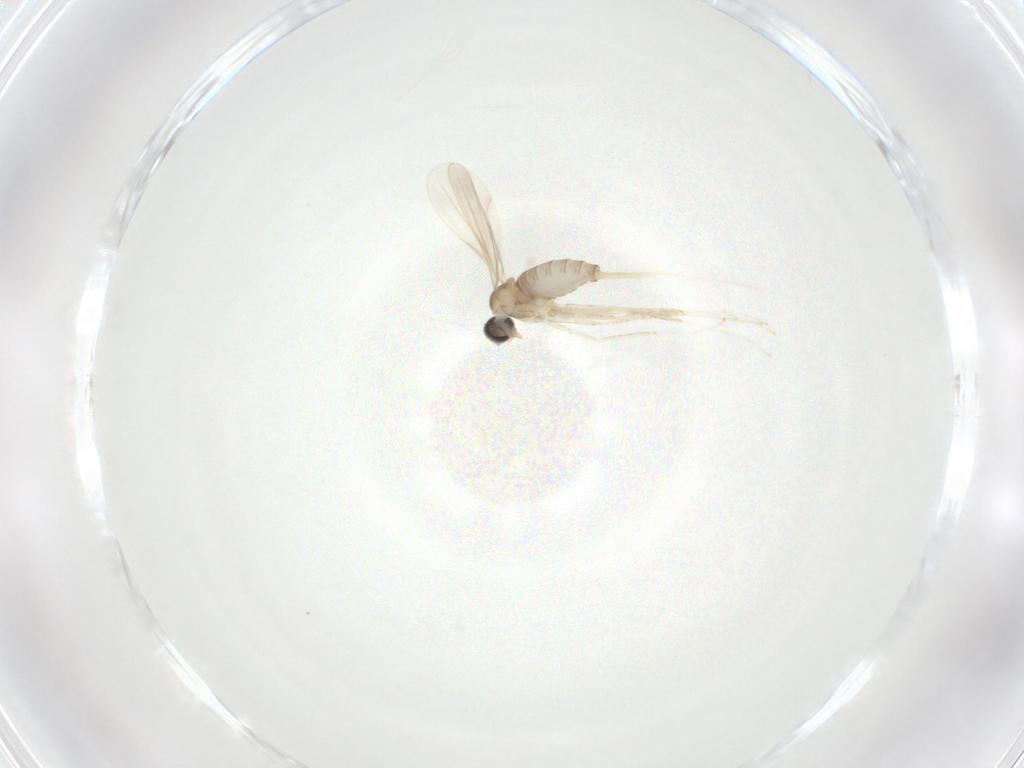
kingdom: Animalia
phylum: Arthropoda
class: Insecta
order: Diptera
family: Cecidomyiidae
